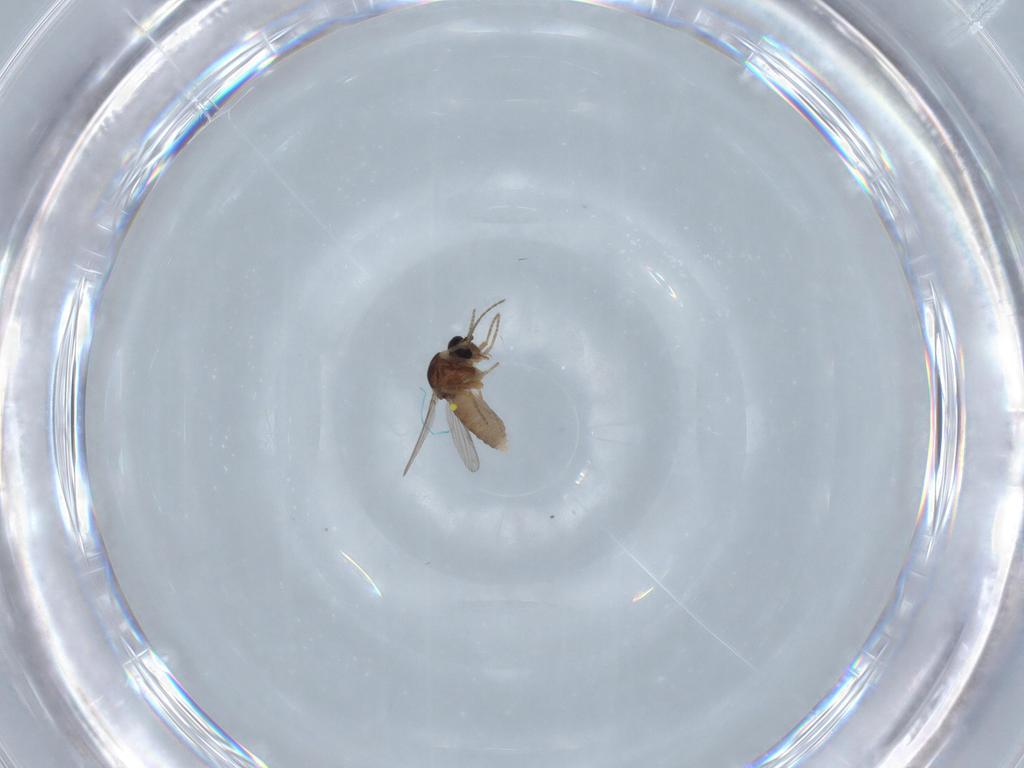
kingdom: Animalia
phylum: Arthropoda
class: Insecta
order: Diptera
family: Ceratopogonidae
